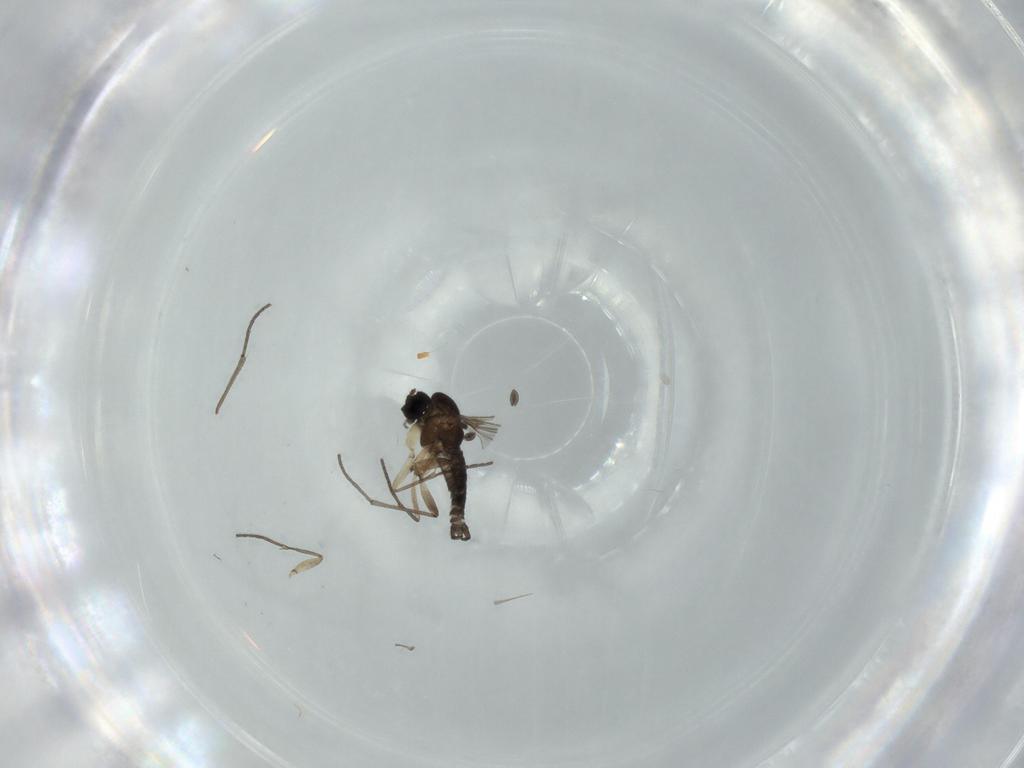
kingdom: Animalia
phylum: Arthropoda
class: Insecta
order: Diptera
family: Sciaridae
